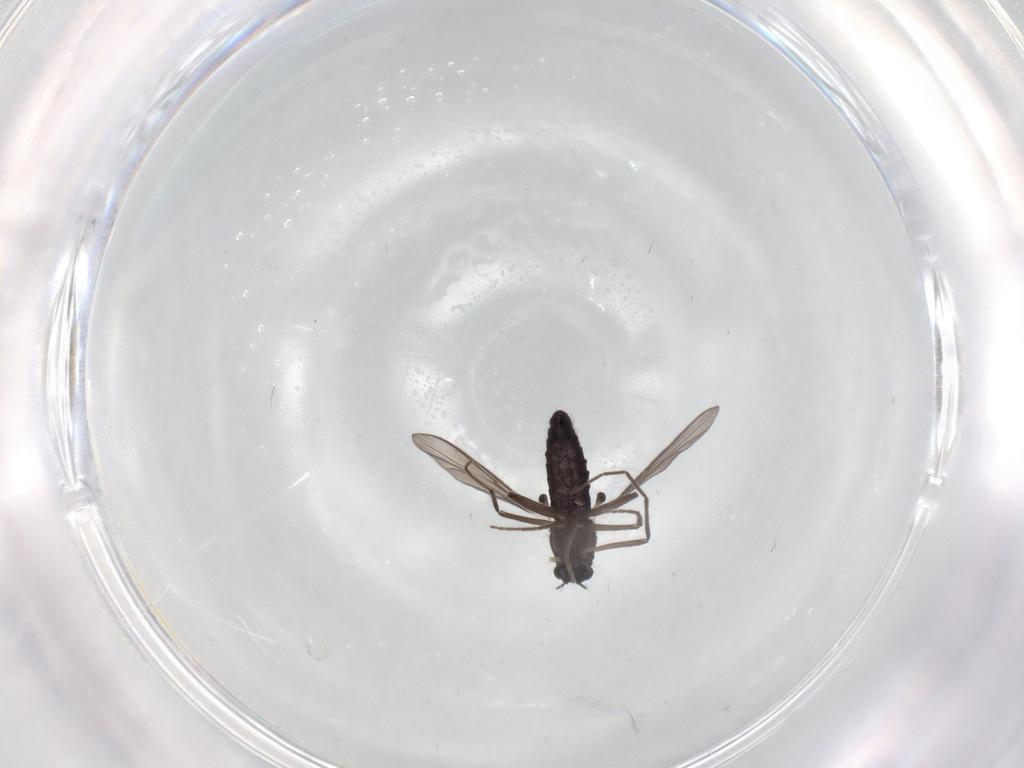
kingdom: Animalia
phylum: Arthropoda
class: Insecta
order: Diptera
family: Chironomidae
